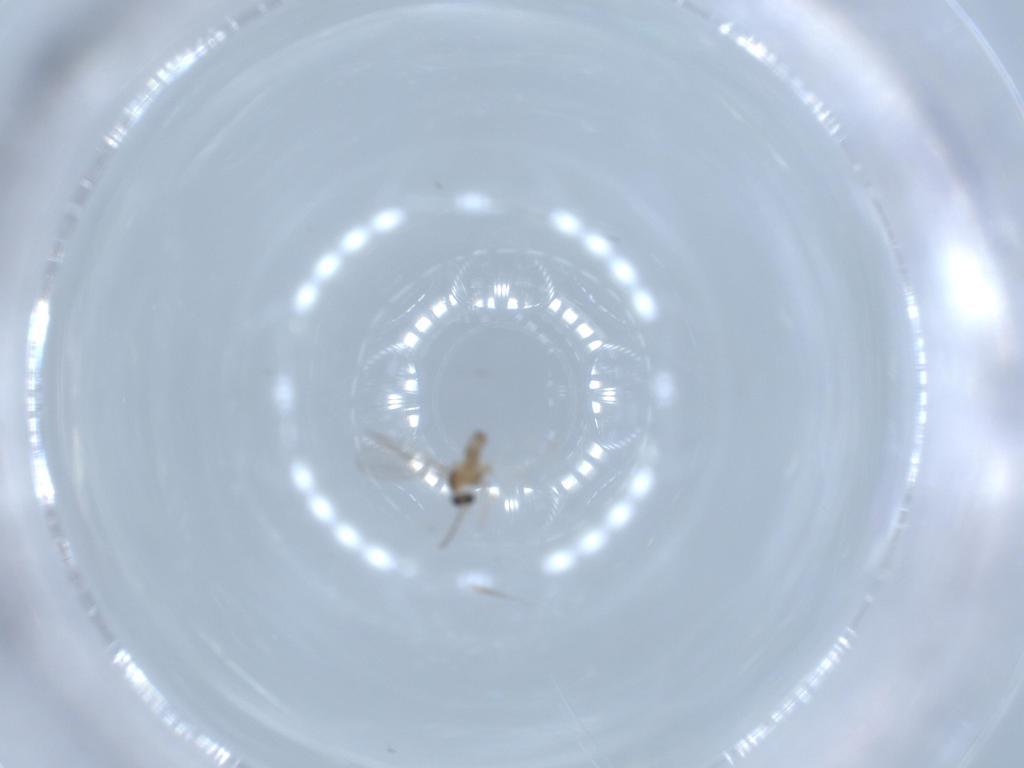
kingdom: Animalia
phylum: Arthropoda
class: Insecta
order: Diptera
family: Cecidomyiidae
